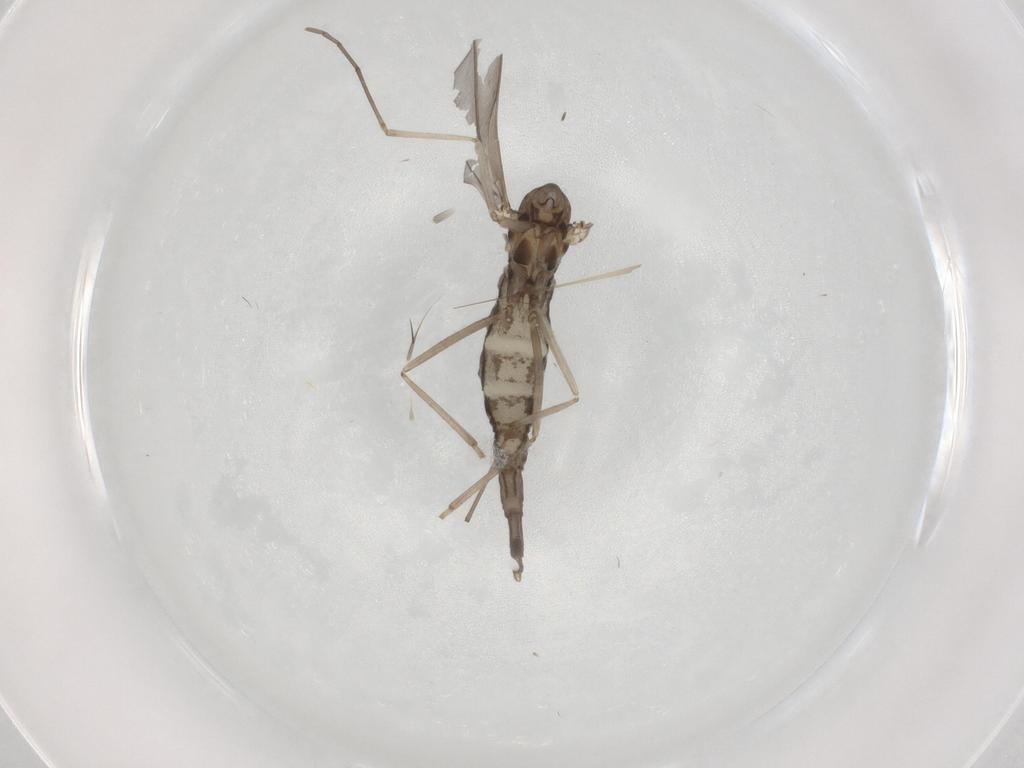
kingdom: Animalia
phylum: Arthropoda
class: Insecta
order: Diptera
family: Cecidomyiidae
